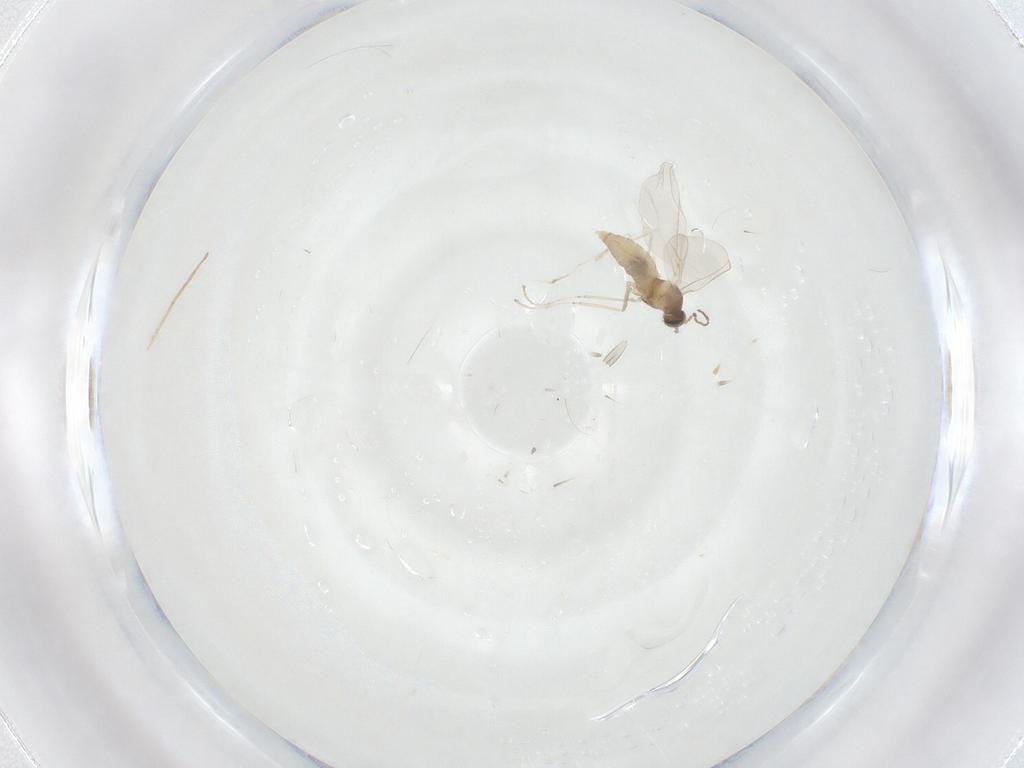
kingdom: Animalia
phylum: Arthropoda
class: Insecta
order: Diptera
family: Cecidomyiidae
